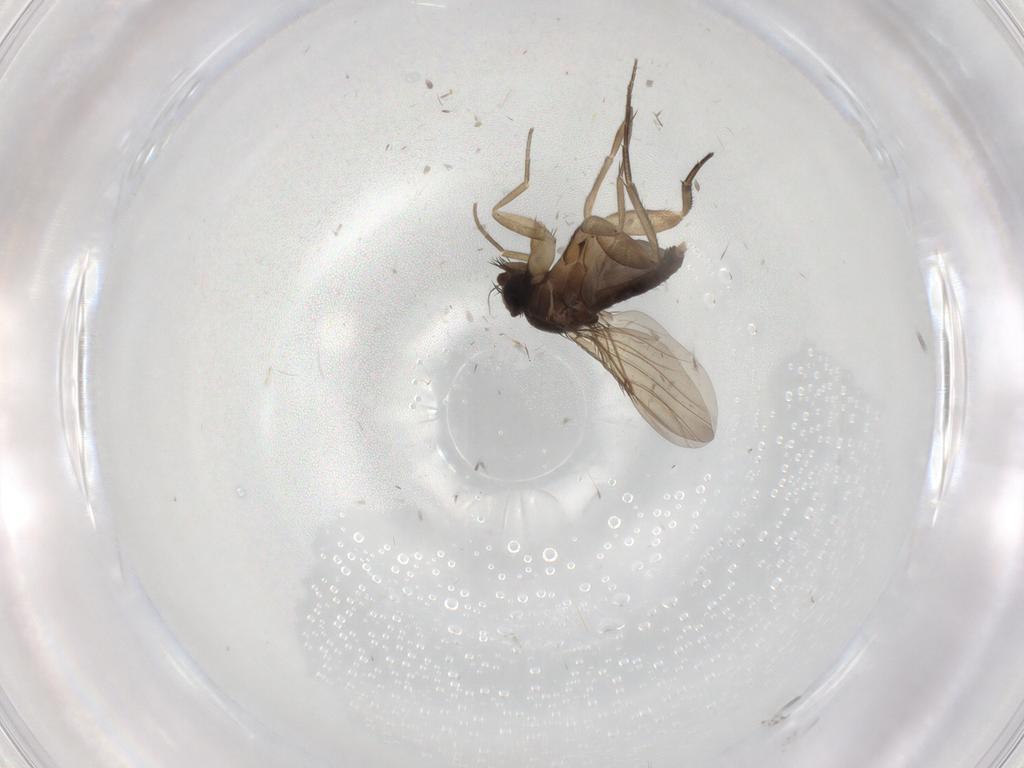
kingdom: Animalia
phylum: Arthropoda
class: Insecta
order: Diptera
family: Phoridae
